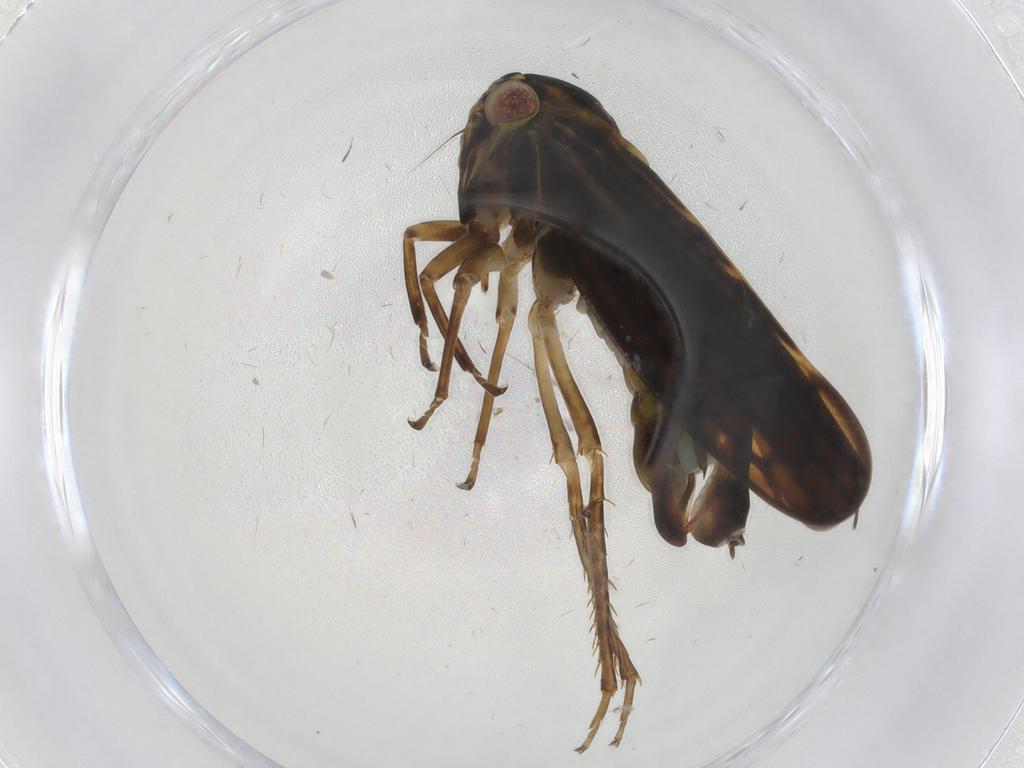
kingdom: Animalia
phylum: Arthropoda
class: Insecta
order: Hemiptera
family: Cicadellidae
